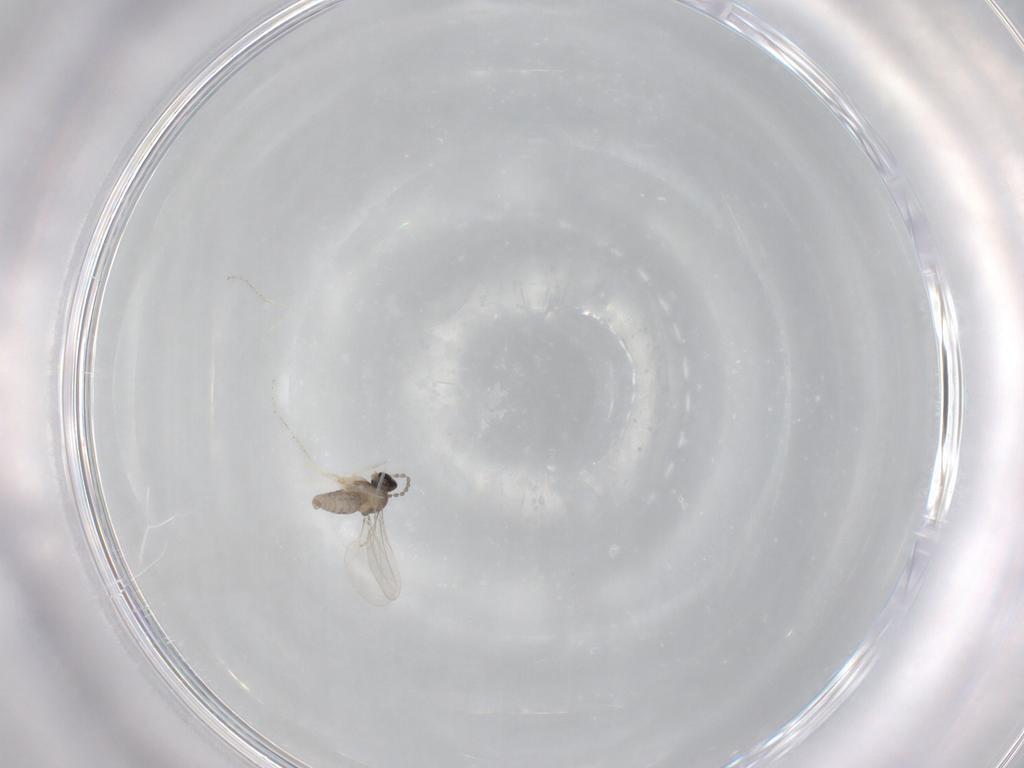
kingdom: Animalia
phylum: Arthropoda
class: Insecta
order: Diptera
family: Cecidomyiidae
